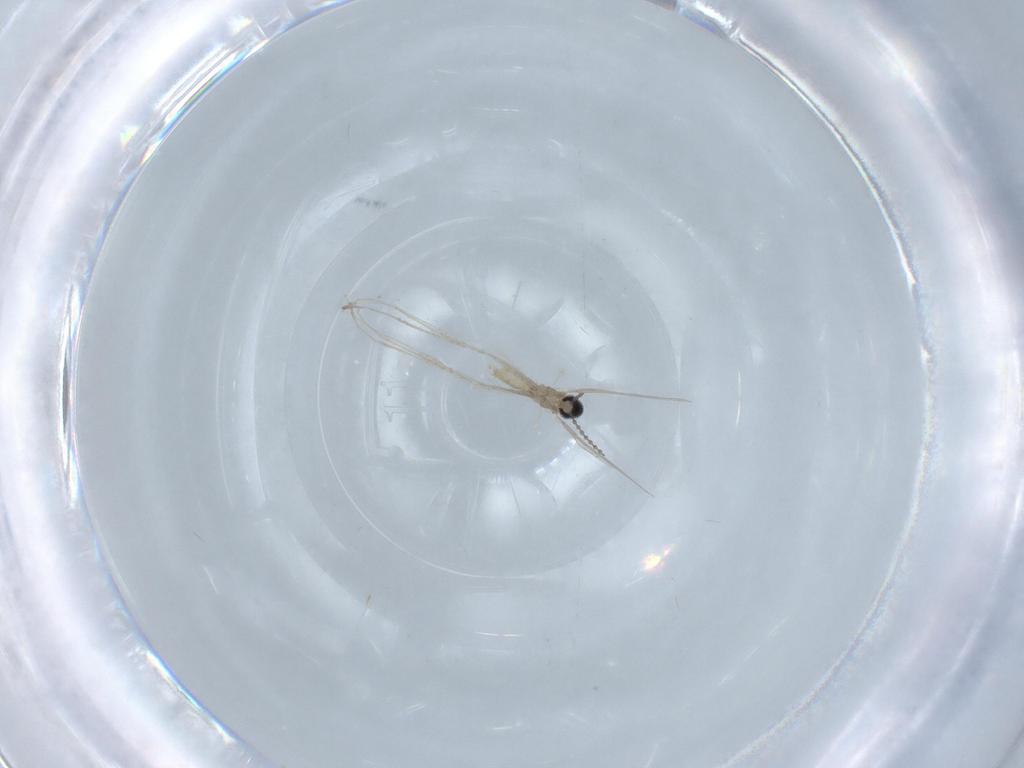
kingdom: Animalia
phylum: Arthropoda
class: Insecta
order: Diptera
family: Cecidomyiidae
